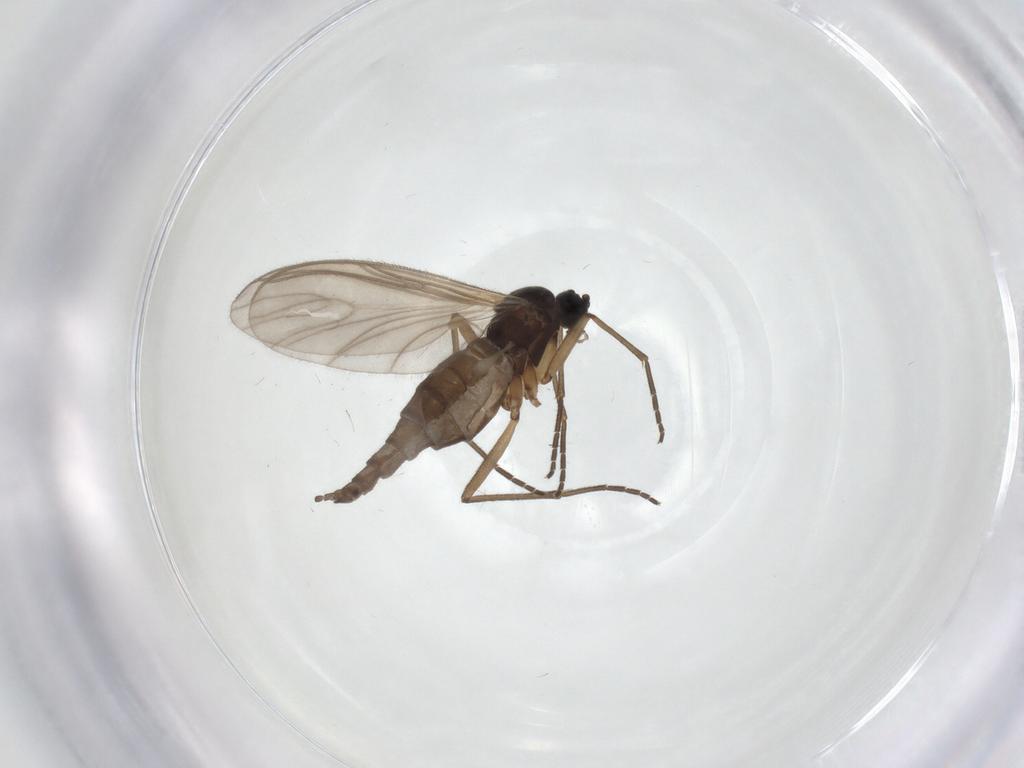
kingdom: Animalia
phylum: Arthropoda
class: Insecta
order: Diptera
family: Sciaridae
